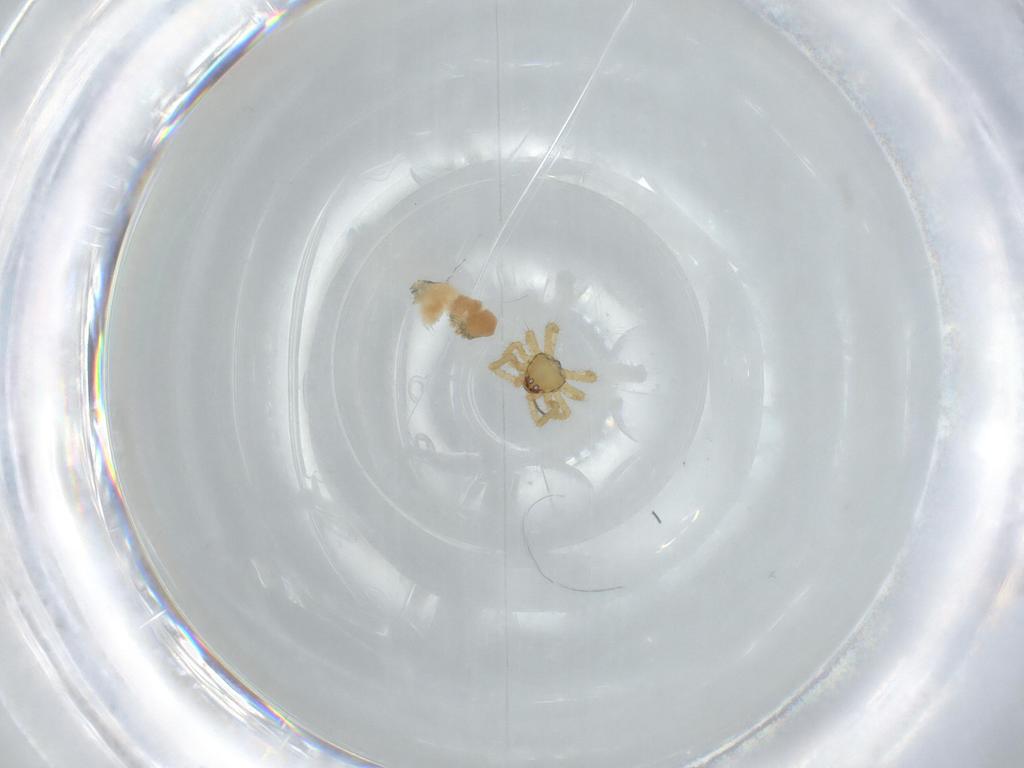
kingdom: Animalia
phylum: Arthropoda
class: Arachnida
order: Araneae
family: Theridiidae
